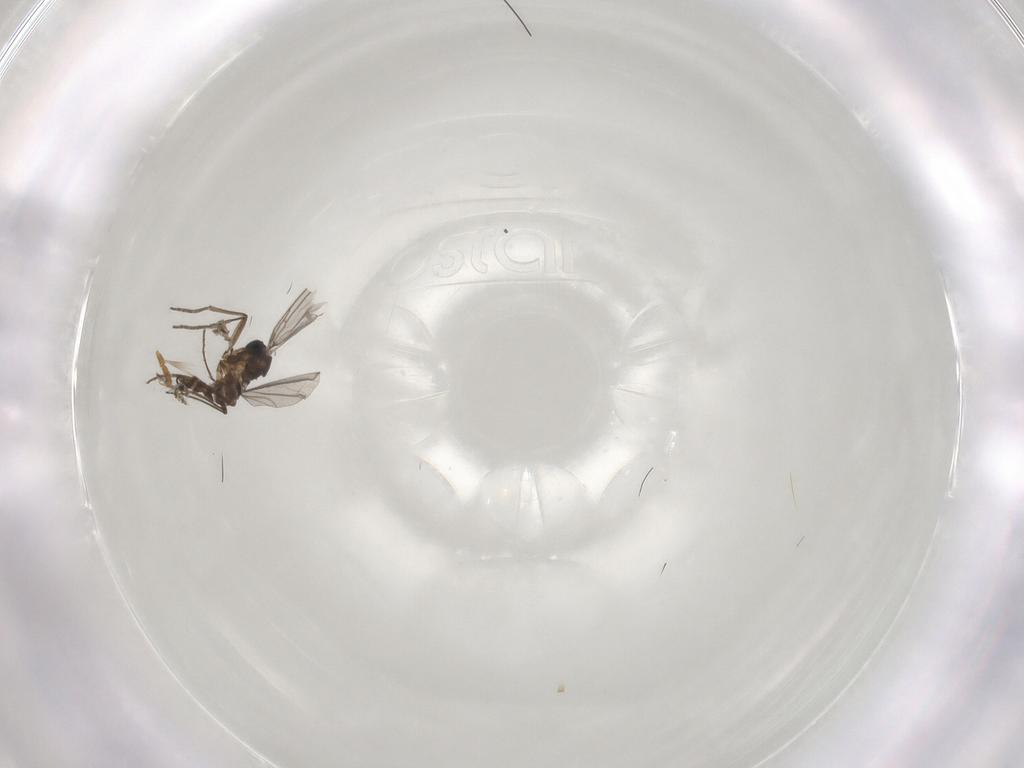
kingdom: Animalia
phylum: Arthropoda
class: Insecta
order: Diptera
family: Sciaridae
